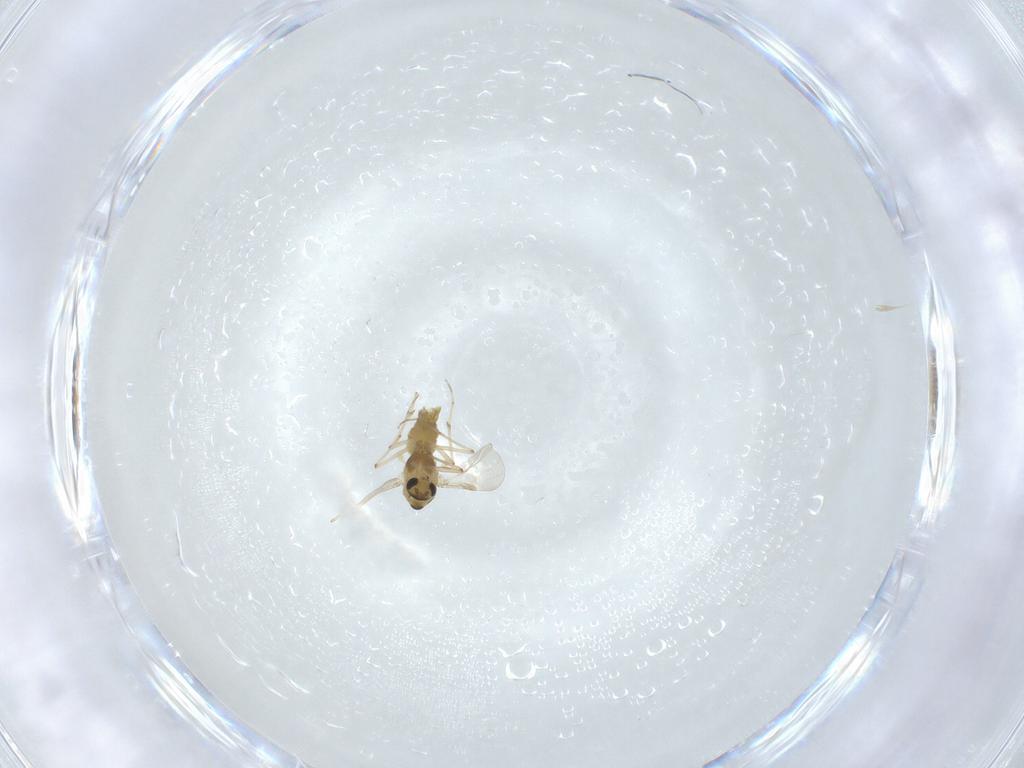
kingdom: Animalia
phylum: Arthropoda
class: Insecta
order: Diptera
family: Chironomidae
